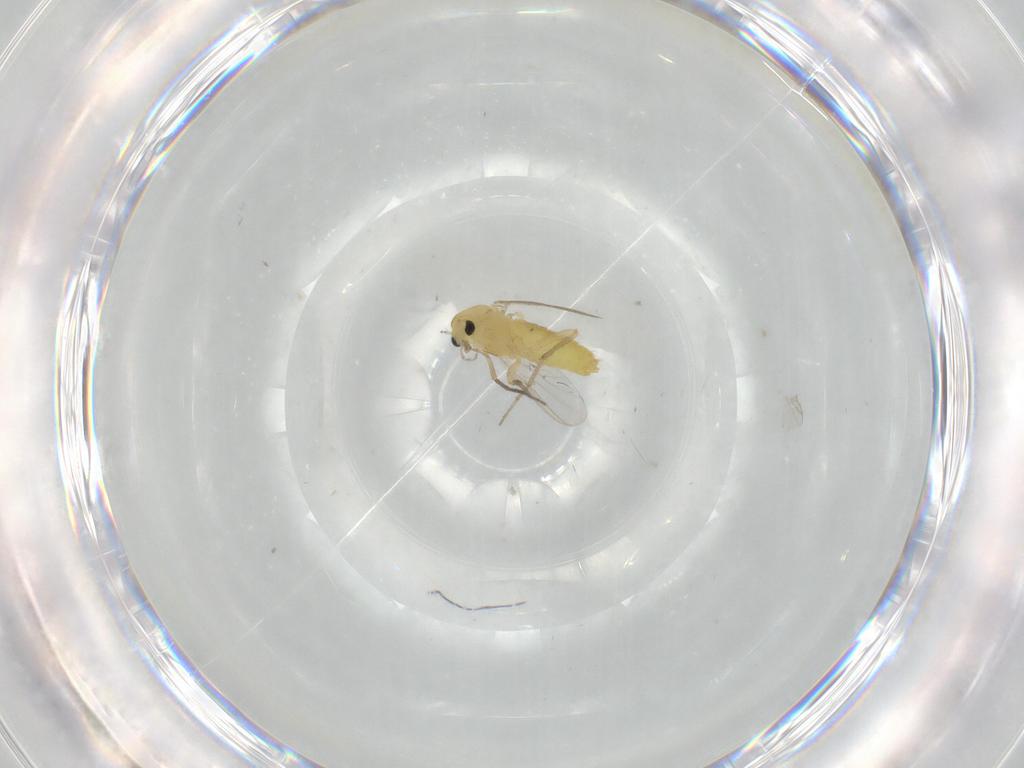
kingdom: Animalia
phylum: Arthropoda
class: Insecta
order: Diptera
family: Chironomidae
